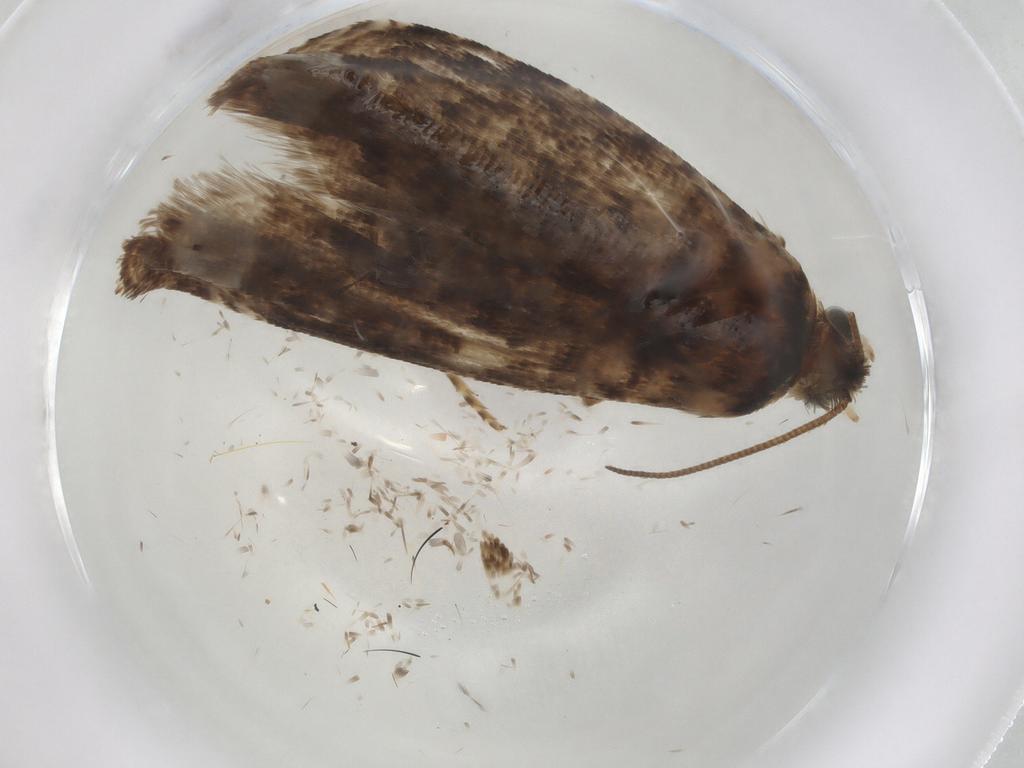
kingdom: Animalia
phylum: Arthropoda
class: Insecta
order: Lepidoptera
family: Tortricidae
